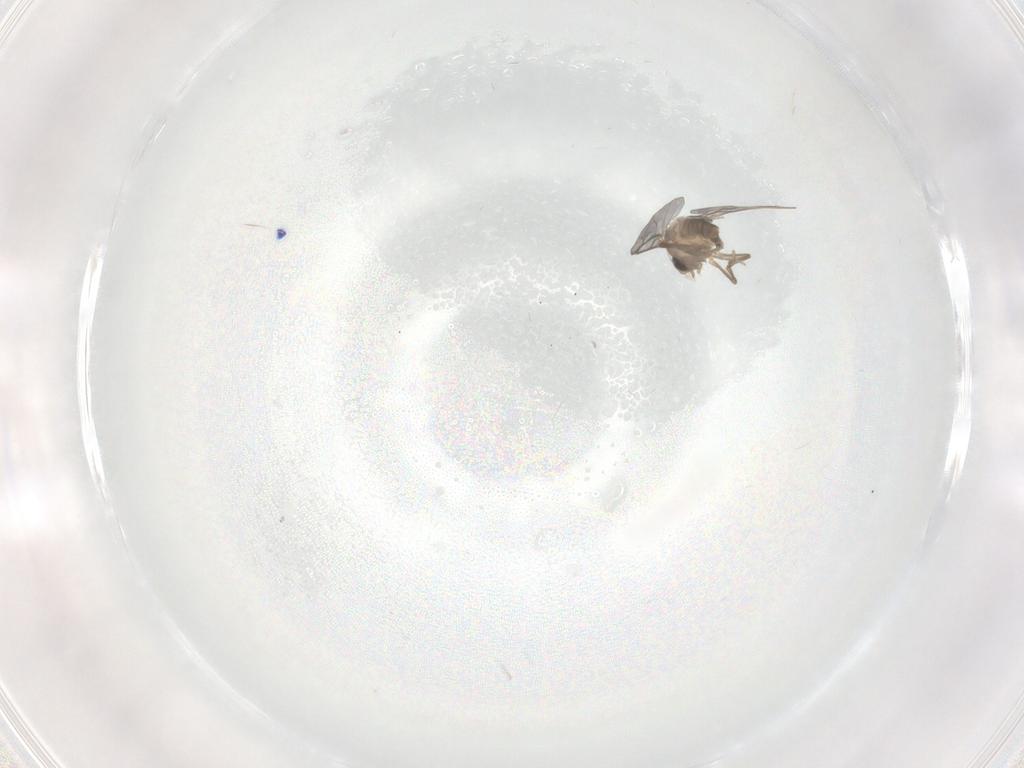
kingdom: Animalia
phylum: Arthropoda
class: Insecta
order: Diptera
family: Cecidomyiidae
